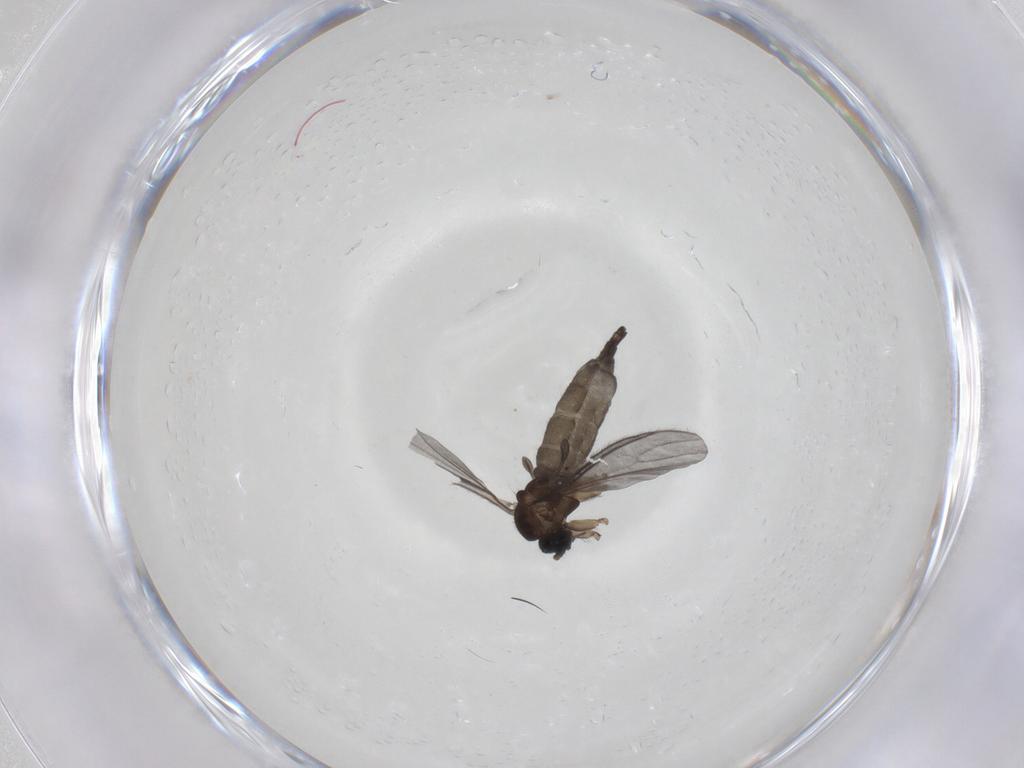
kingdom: Animalia
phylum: Arthropoda
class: Insecta
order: Diptera
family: Sciaridae
